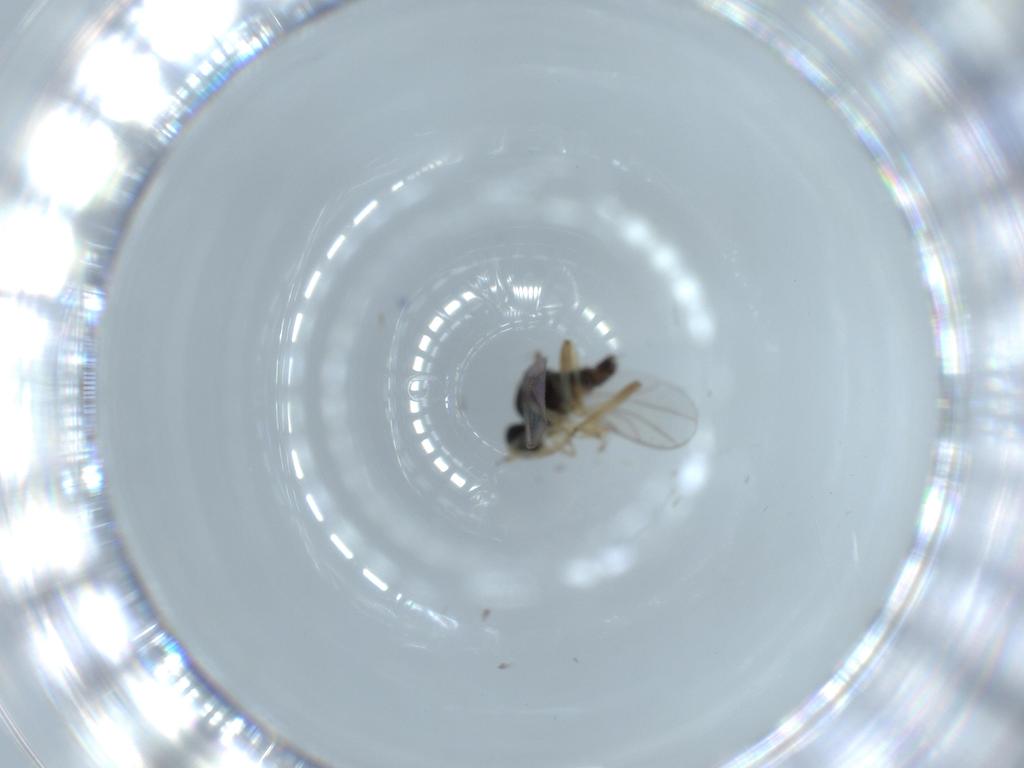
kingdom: Animalia
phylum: Arthropoda
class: Insecta
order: Diptera
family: Hybotidae
